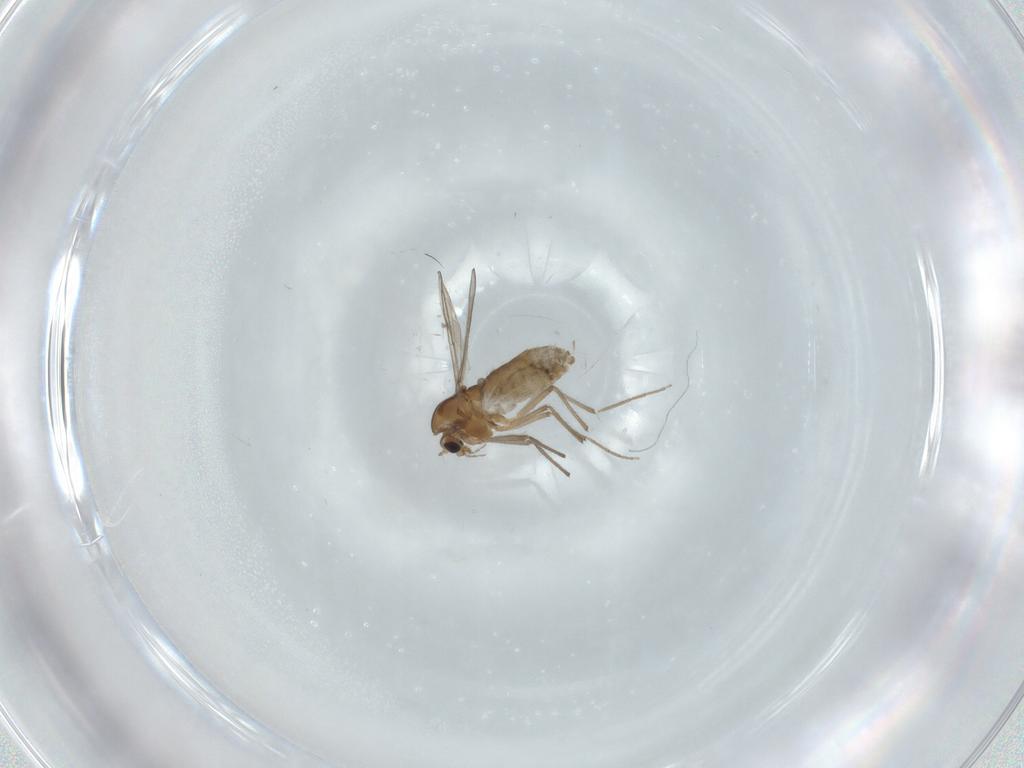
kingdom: Animalia
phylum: Arthropoda
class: Insecta
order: Diptera
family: Chironomidae
